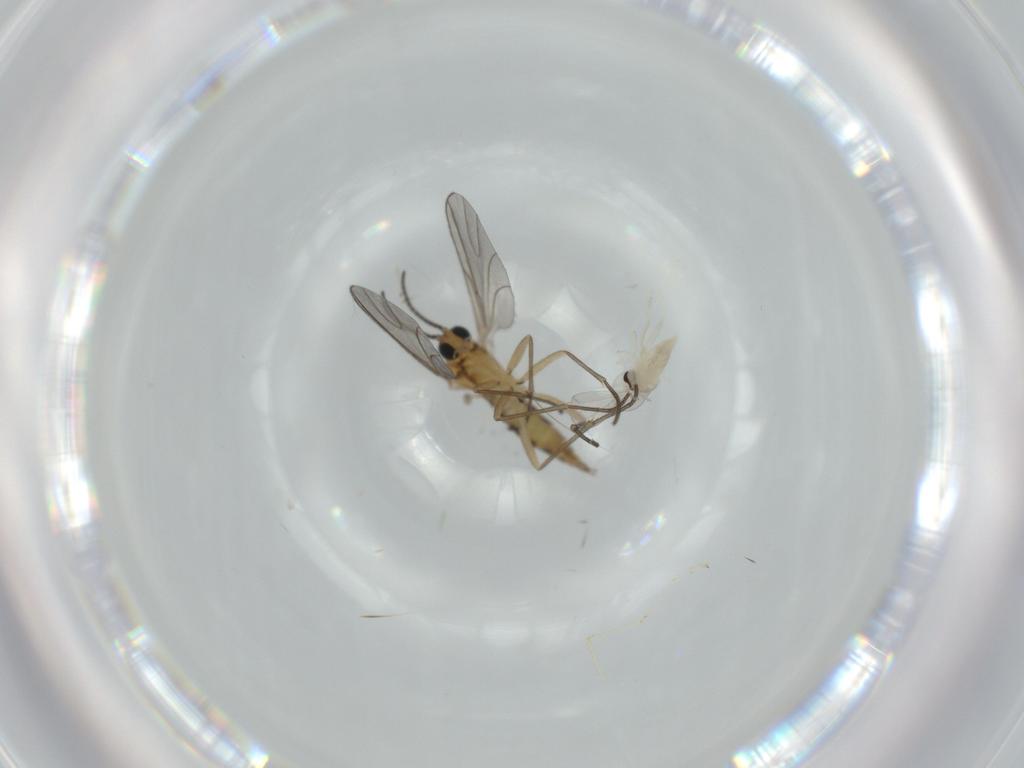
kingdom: Animalia
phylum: Arthropoda
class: Insecta
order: Diptera
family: Cecidomyiidae
